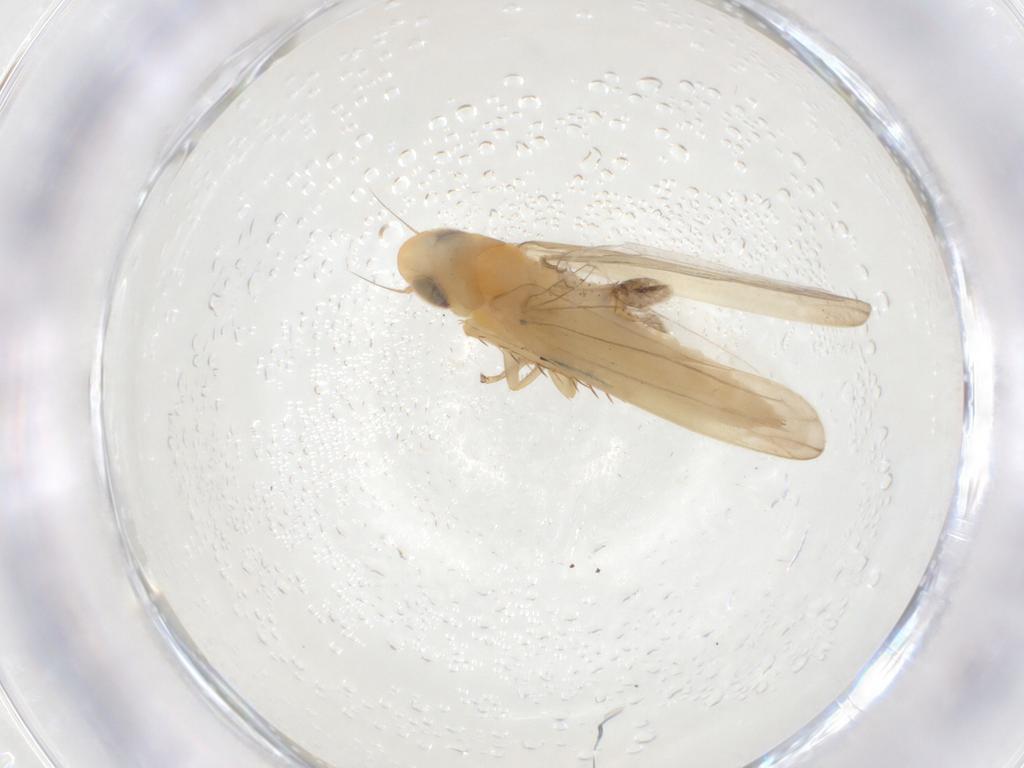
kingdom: Animalia
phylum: Arthropoda
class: Insecta
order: Hemiptera
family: Cicadellidae
